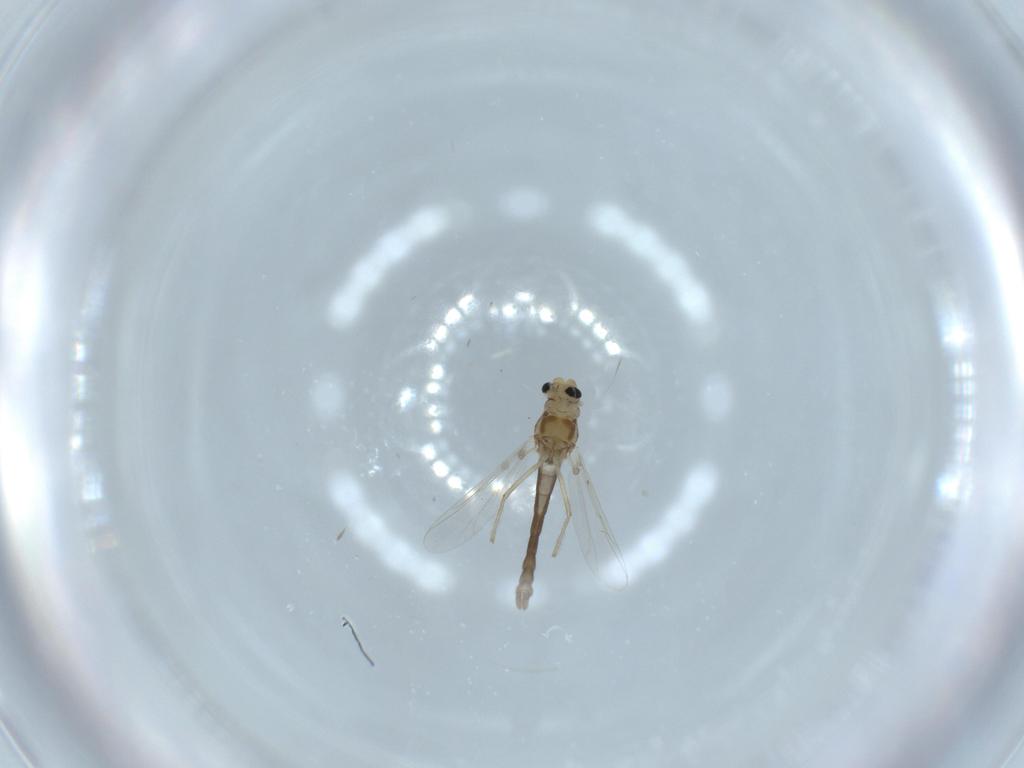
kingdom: Animalia
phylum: Arthropoda
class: Insecta
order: Diptera
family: Chironomidae
